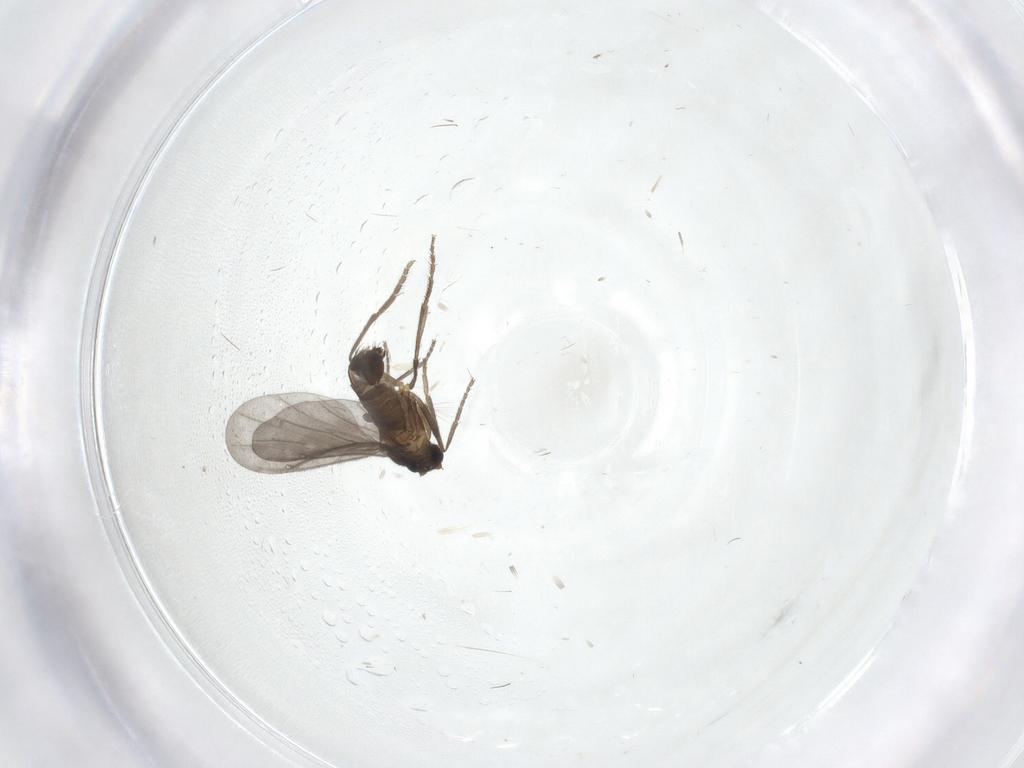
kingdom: Animalia
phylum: Arthropoda
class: Insecta
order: Diptera
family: Phoridae
